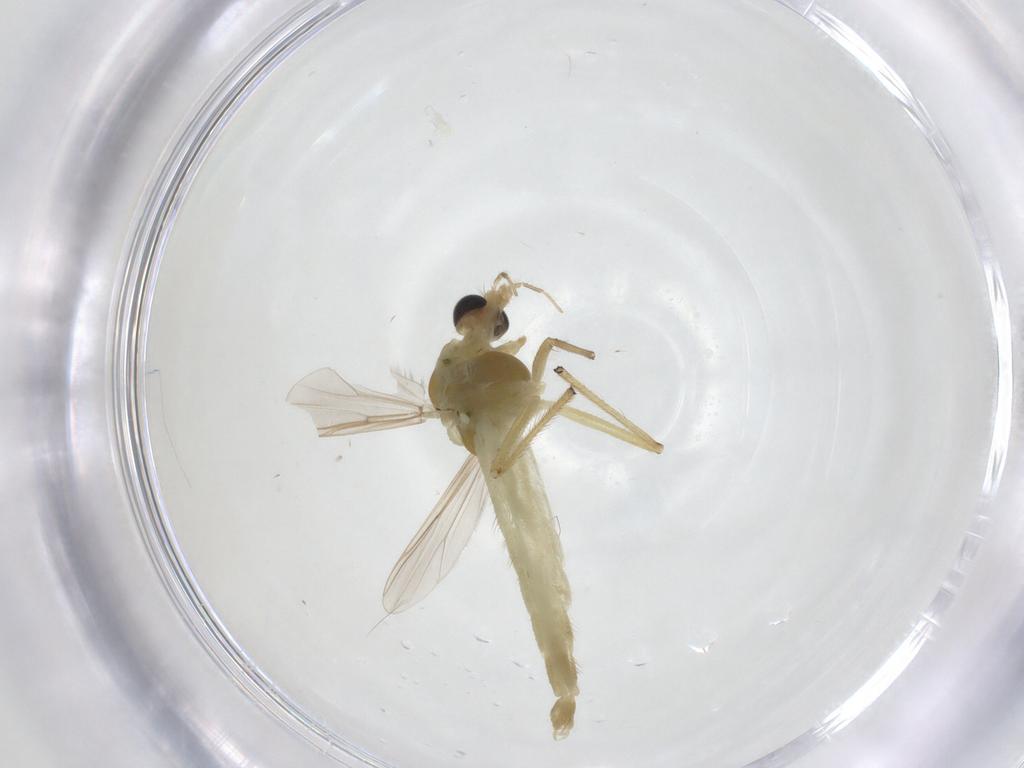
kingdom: Animalia
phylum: Arthropoda
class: Insecta
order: Diptera
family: Chironomidae
